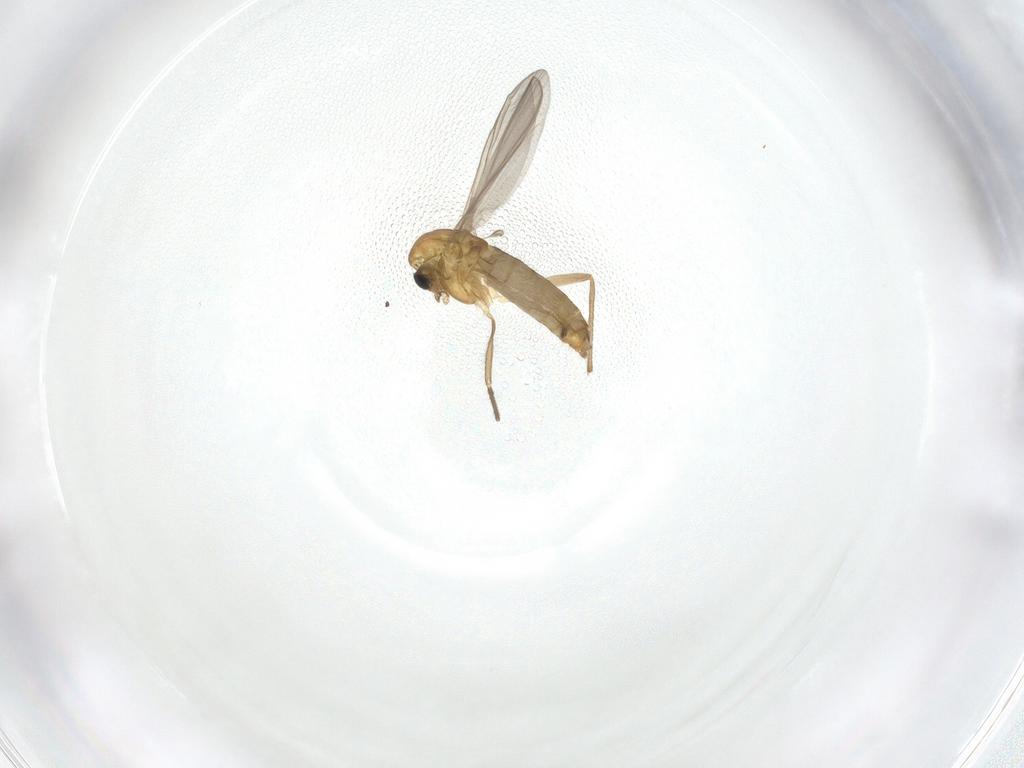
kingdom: Animalia
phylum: Arthropoda
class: Insecta
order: Diptera
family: Chironomidae
